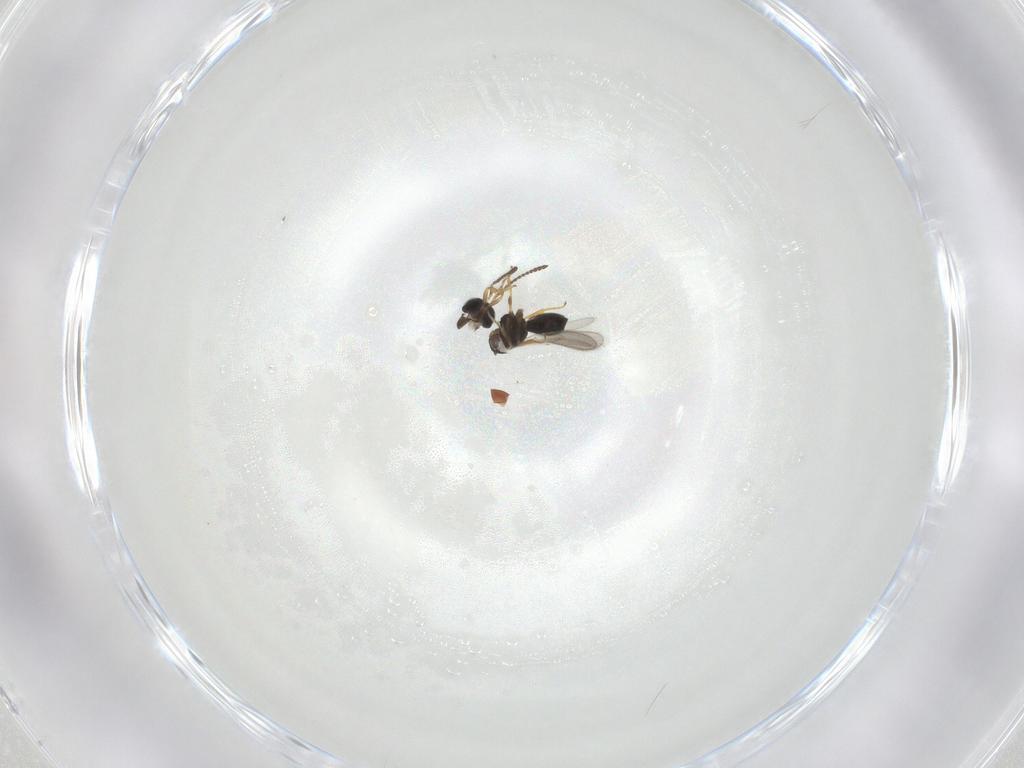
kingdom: Animalia
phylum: Arthropoda
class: Insecta
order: Hymenoptera
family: Scelionidae
